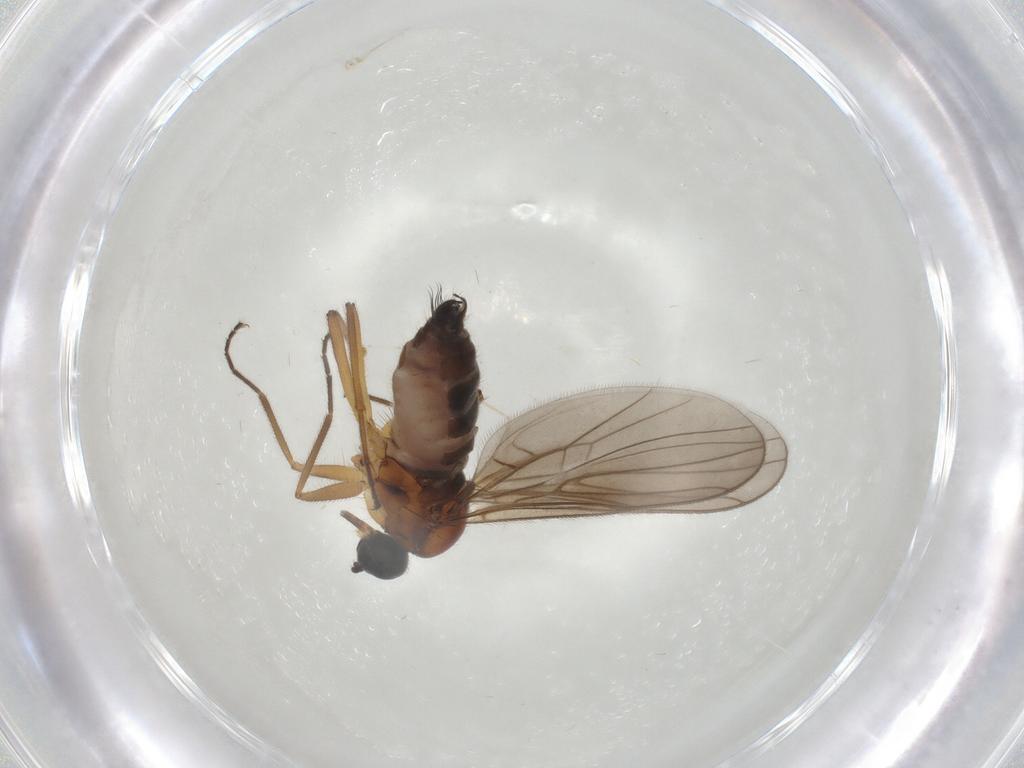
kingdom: Animalia
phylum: Arthropoda
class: Insecta
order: Diptera
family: Hybotidae
